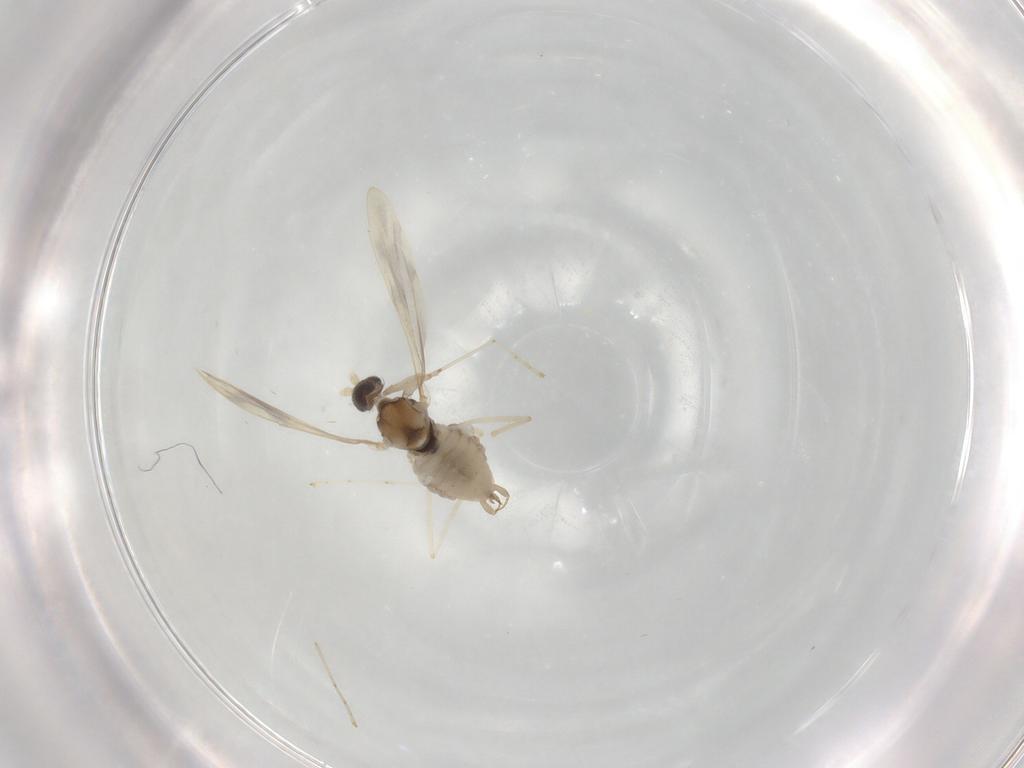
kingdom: Animalia
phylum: Arthropoda
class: Insecta
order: Diptera
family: Cecidomyiidae
